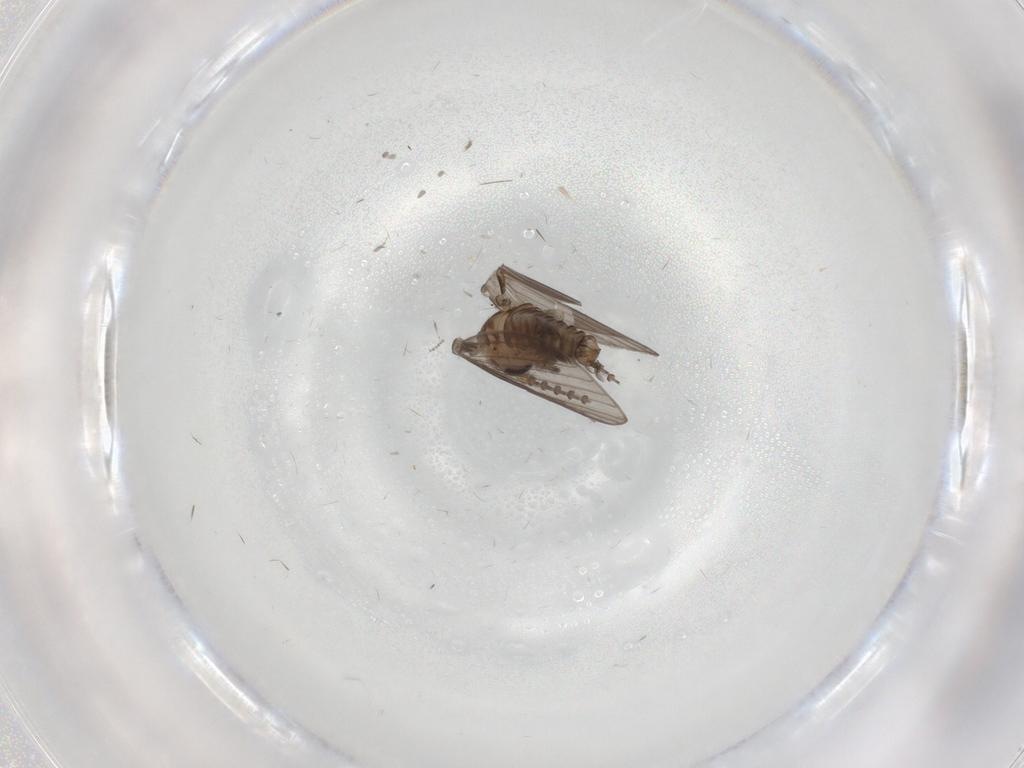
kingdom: Animalia
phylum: Arthropoda
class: Insecta
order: Diptera
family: Psychodidae
